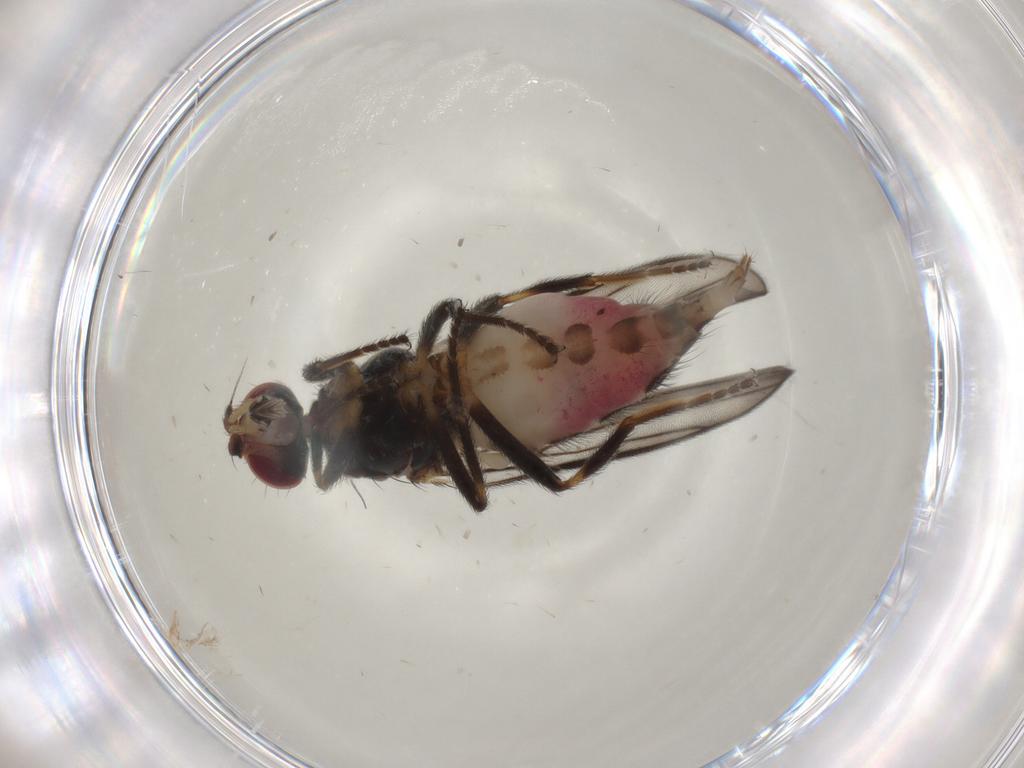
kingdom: Animalia
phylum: Arthropoda
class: Insecta
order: Diptera
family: Chloropidae
